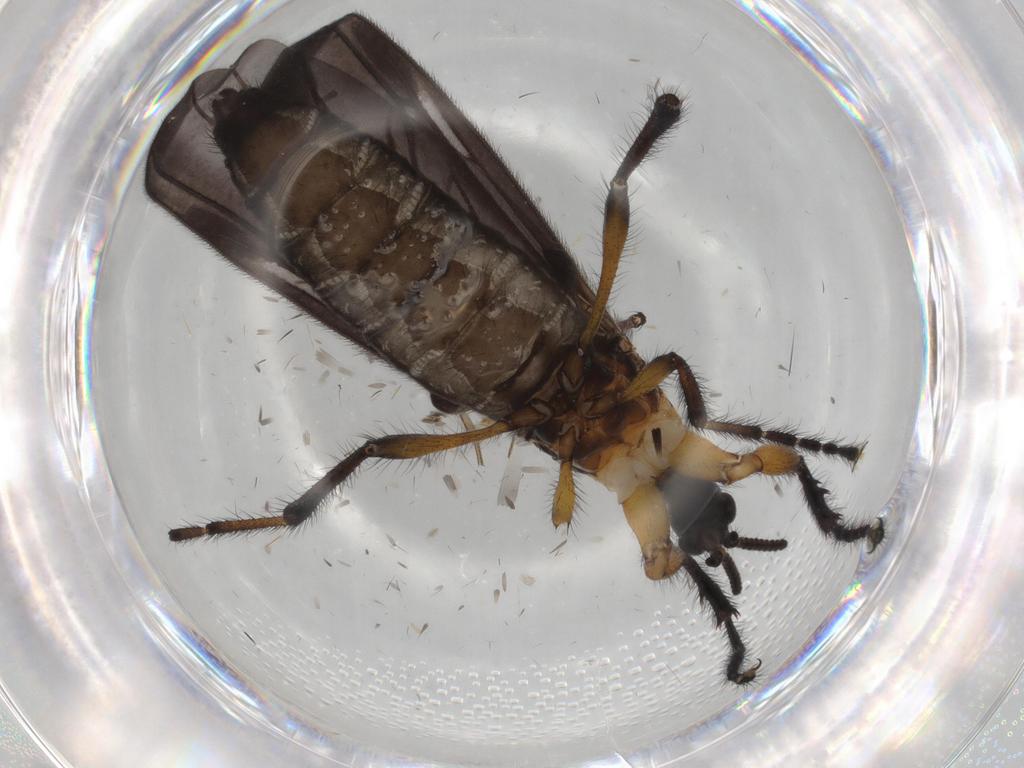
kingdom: Animalia
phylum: Arthropoda
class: Insecta
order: Diptera
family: Bibionidae
